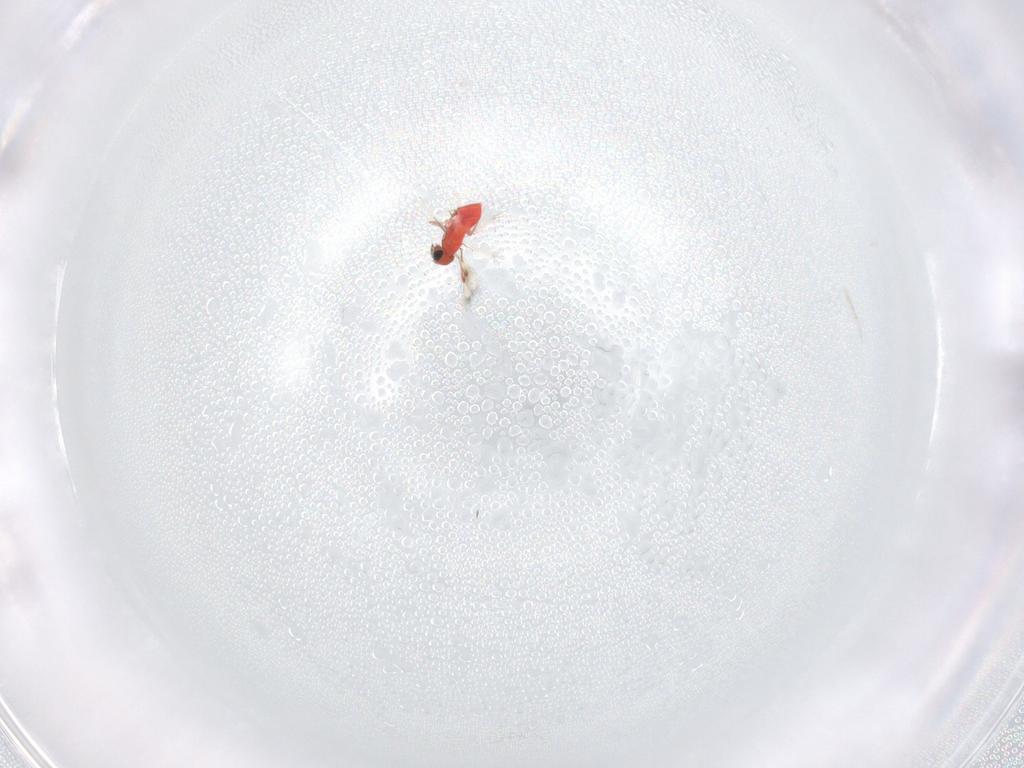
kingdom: Animalia
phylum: Arthropoda
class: Insecta
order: Hymenoptera
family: Trichogrammatidae
